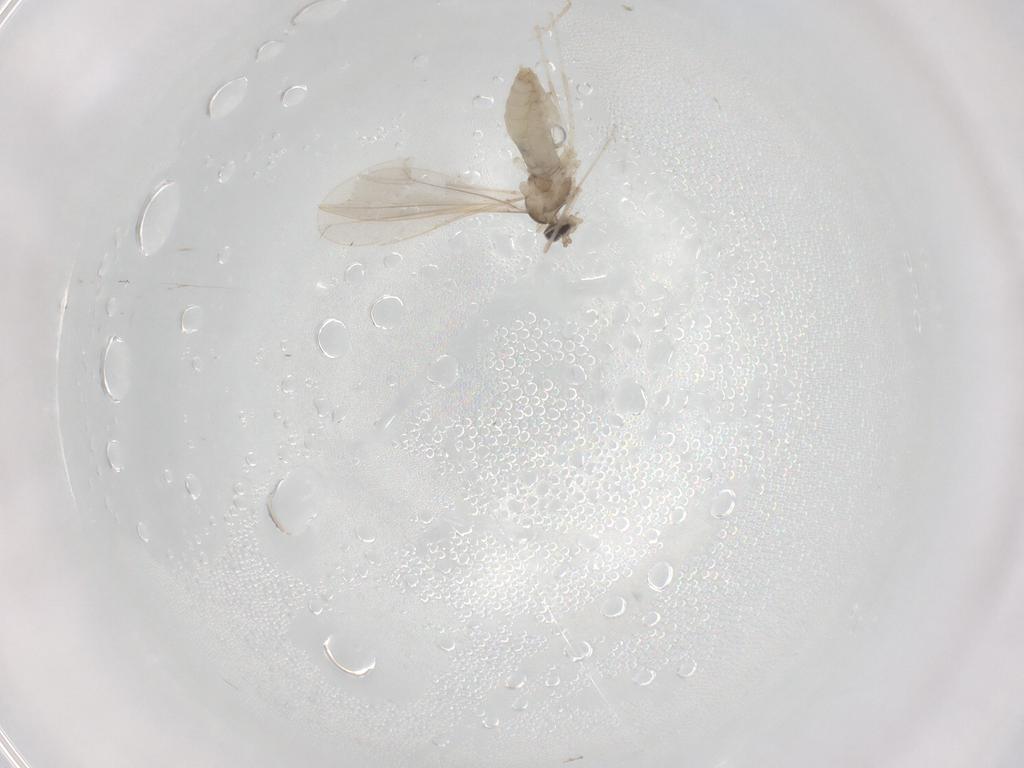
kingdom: Animalia
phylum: Arthropoda
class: Insecta
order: Diptera
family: Cecidomyiidae
